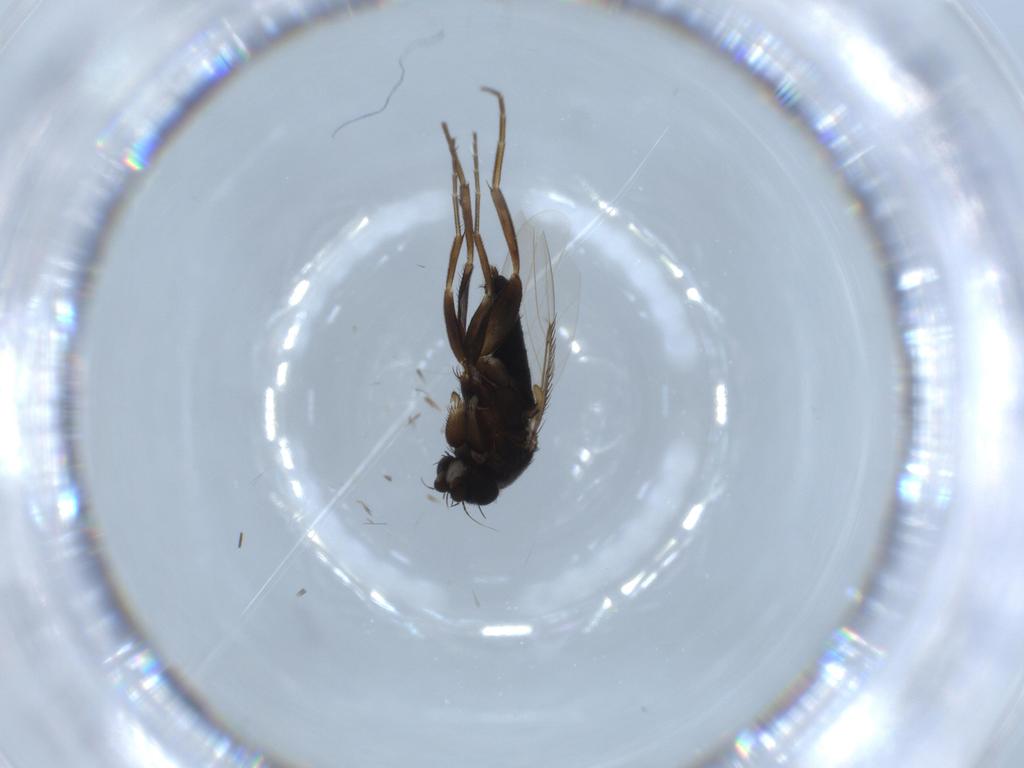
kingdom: Animalia
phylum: Arthropoda
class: Insecta
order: Diptera
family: Phoridae
